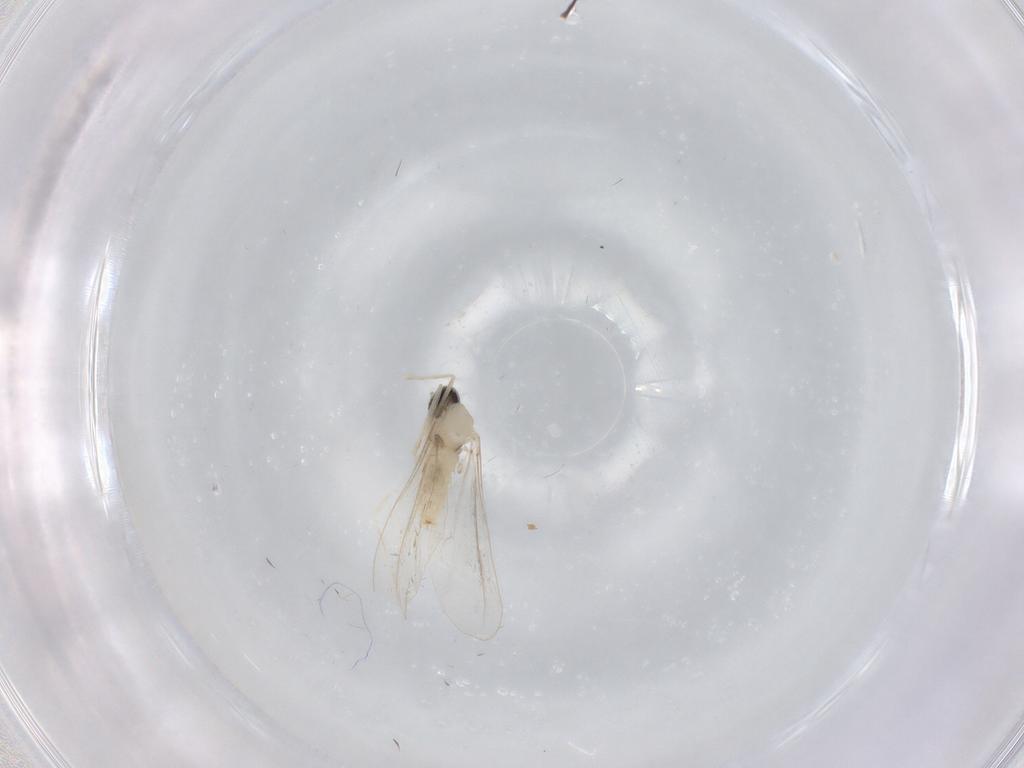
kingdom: Animalia
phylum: Arthropoda
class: Insecta
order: Diptera
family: Cecidomyiidae
